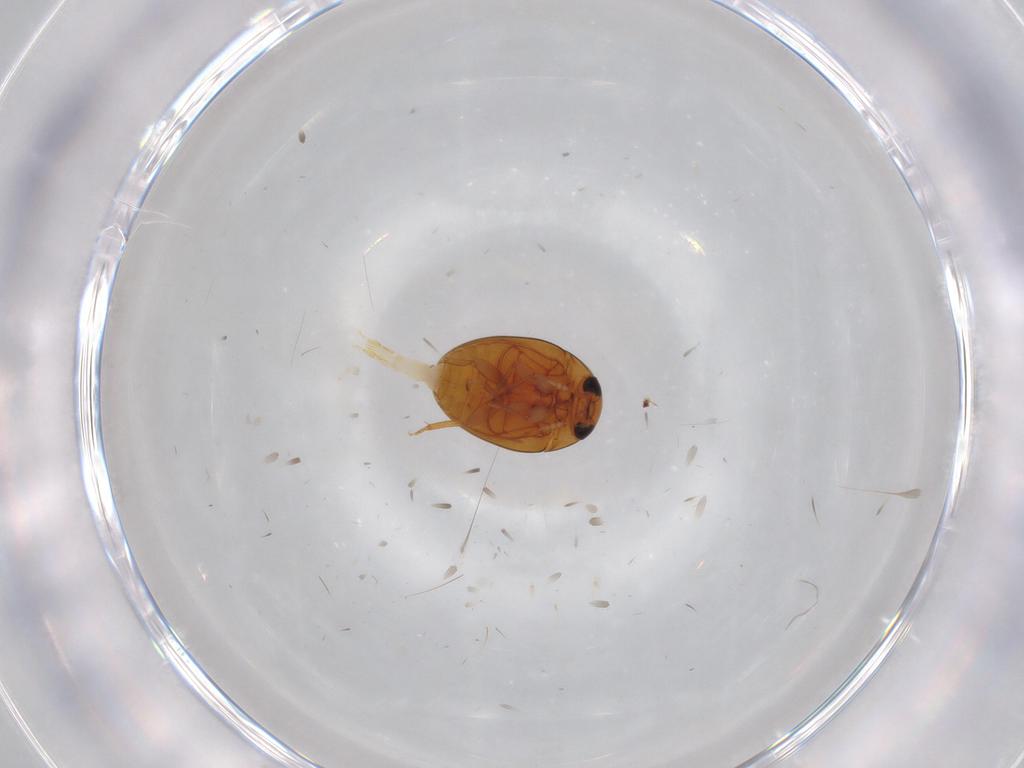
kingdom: Animalia
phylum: Arthropoda
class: Insecta
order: Coleoptera
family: Phalacridae
